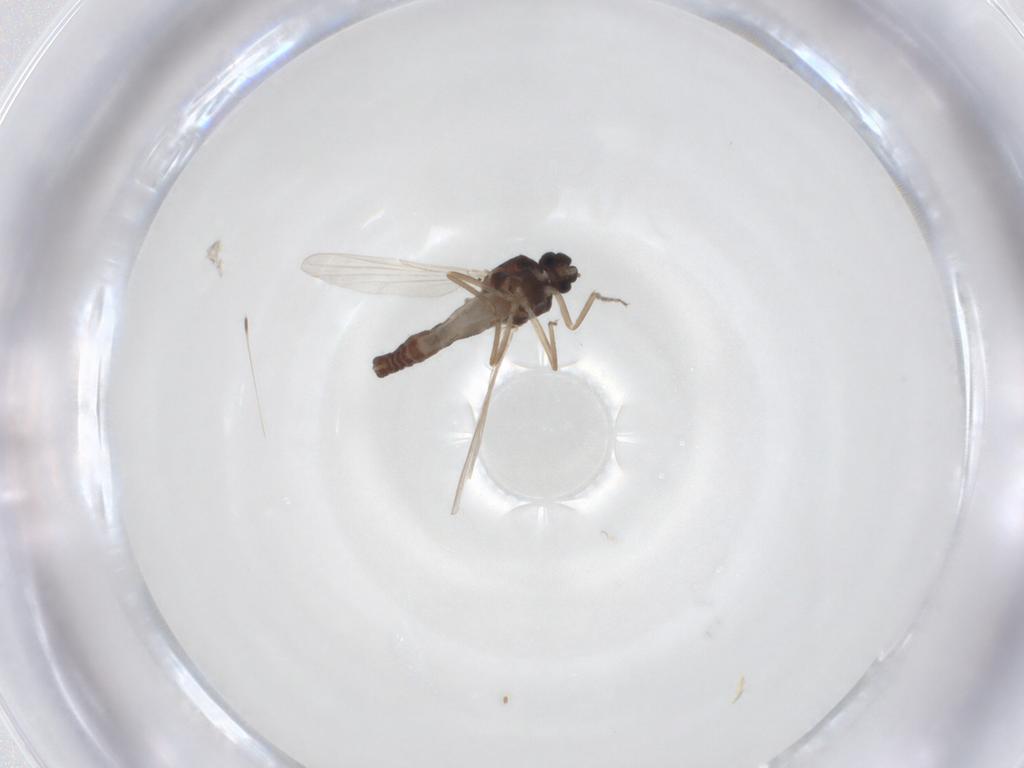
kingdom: Animalia
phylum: Arthropoda
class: Insecta
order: Diptera
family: Ceratopogonidae
